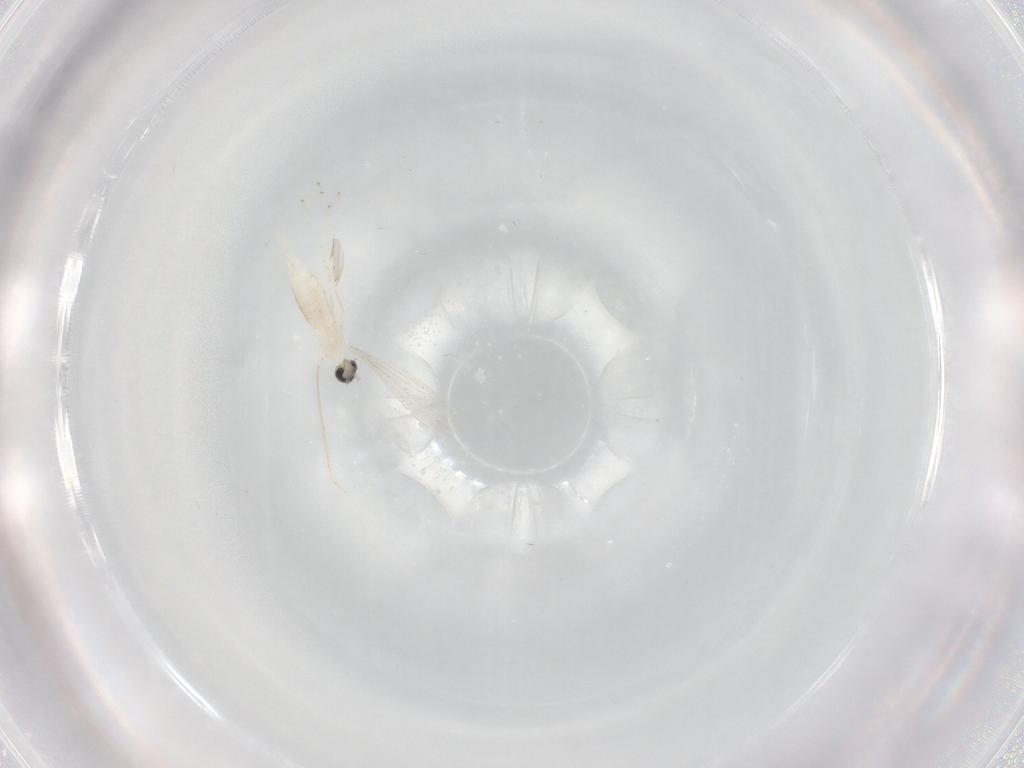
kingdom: Animalia
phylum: Arthropoda
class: Insecta
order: Diptera
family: Cecidomyiidae
